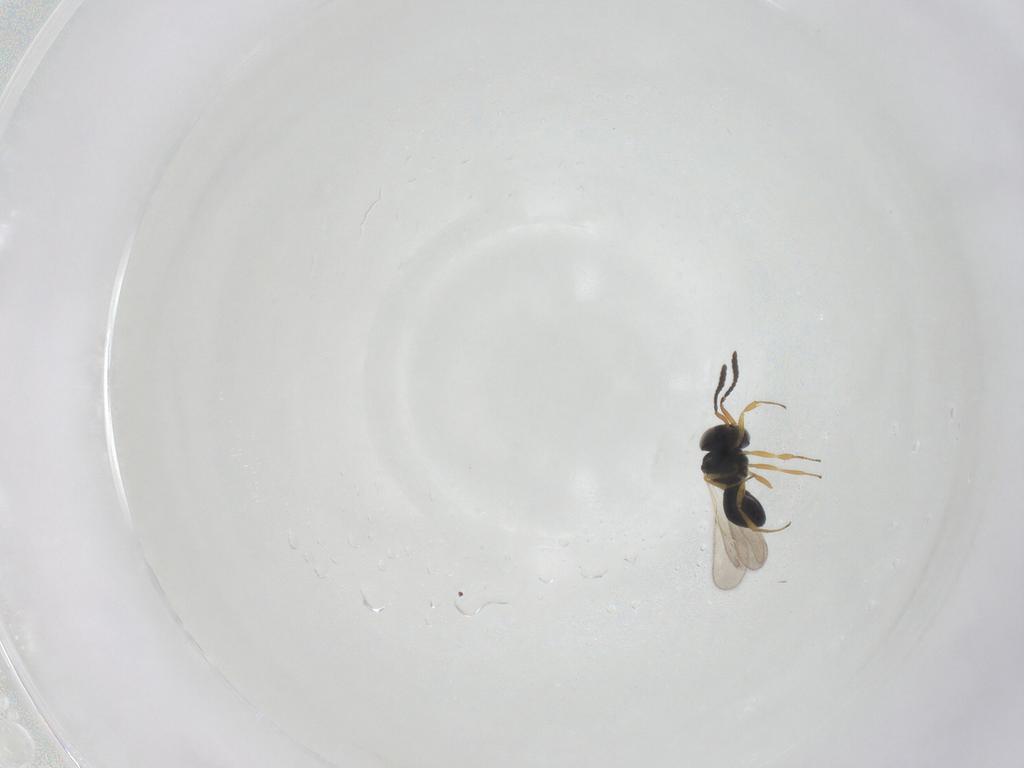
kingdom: Animalia
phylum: Arthropoda
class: Insecta
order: Hymenoptera
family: Scelionidae
